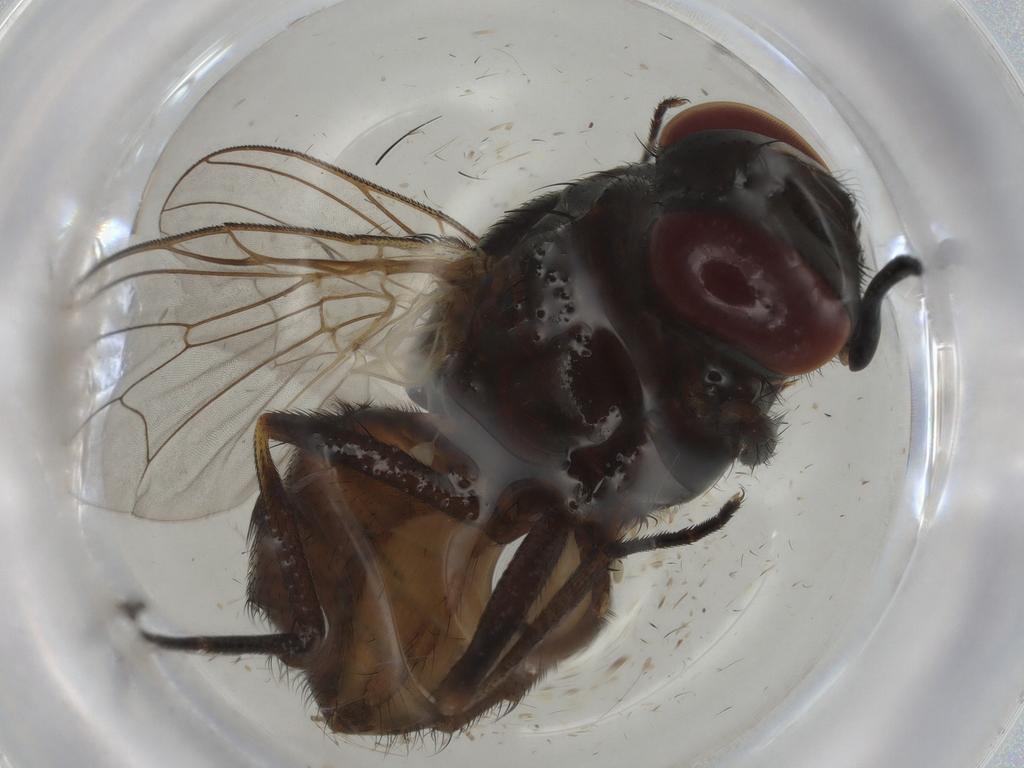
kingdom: Animalia
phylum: Arthropoda
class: Insecta
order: Diptera
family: Muscidae
